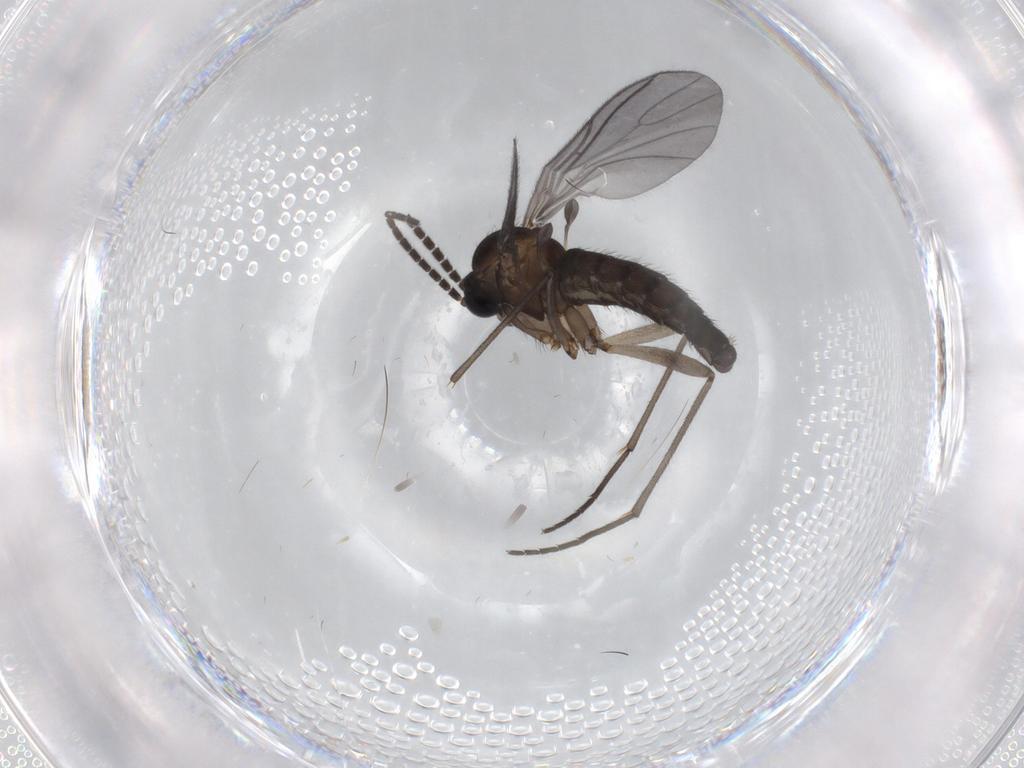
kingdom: Animalia
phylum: Arthropoda
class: Insecta
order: Diptera
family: Sciaridae
